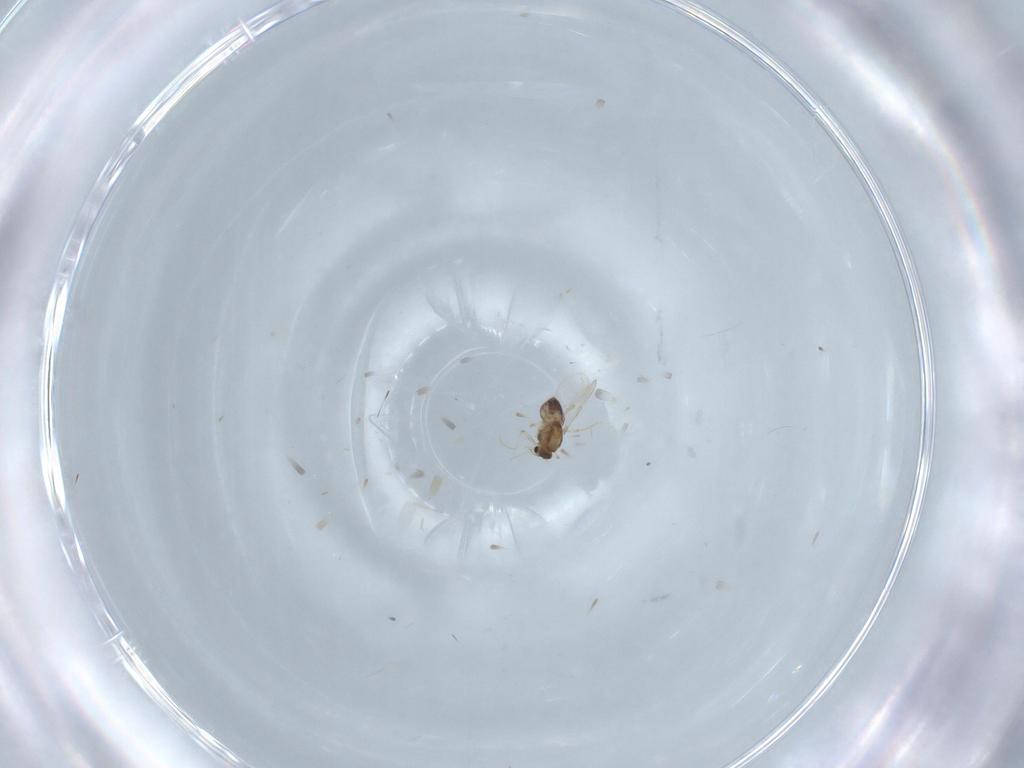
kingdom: Animalia
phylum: Arthropoda
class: Insecta
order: Diptera
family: Chironomidae
